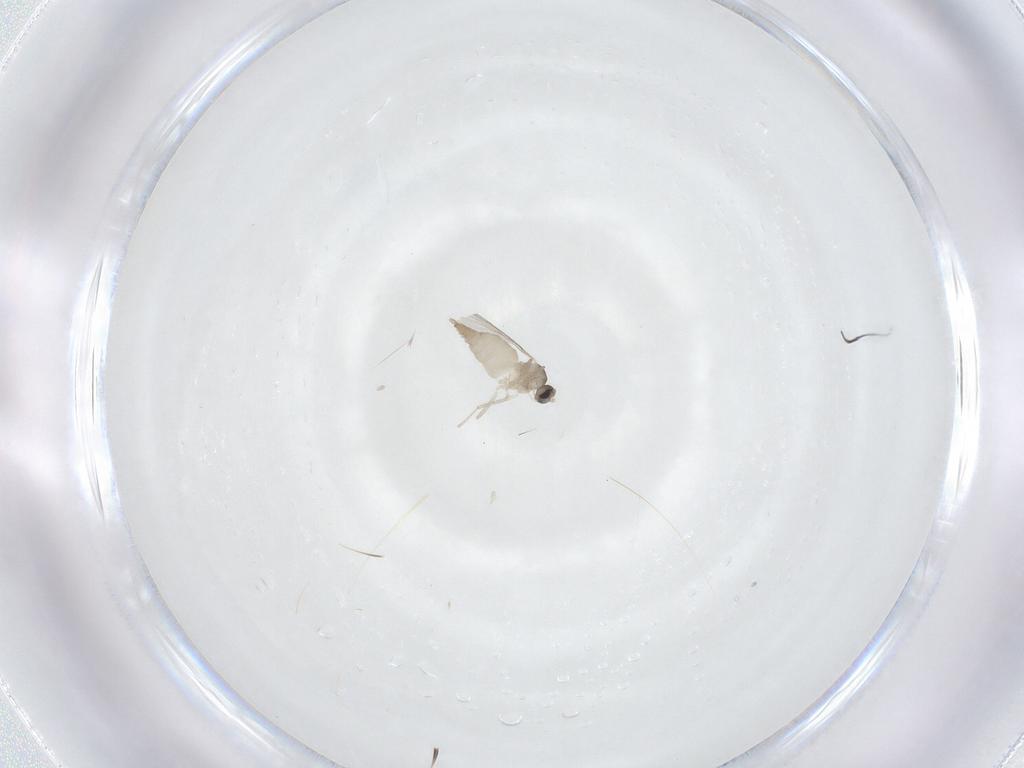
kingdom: Animalia
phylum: Arthropoda
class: Insecta
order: Diptera
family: Cecidomyiidae
